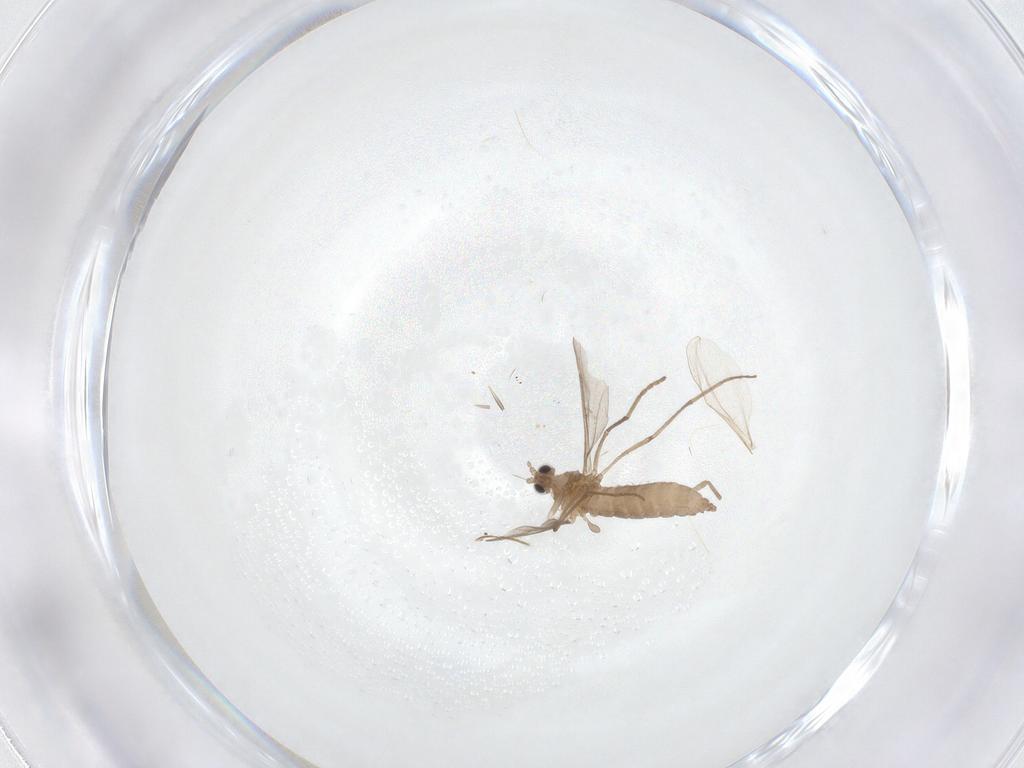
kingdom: Animalia
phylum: Arthropoda
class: Insecta
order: Diptera
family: Cecidomyiidae
